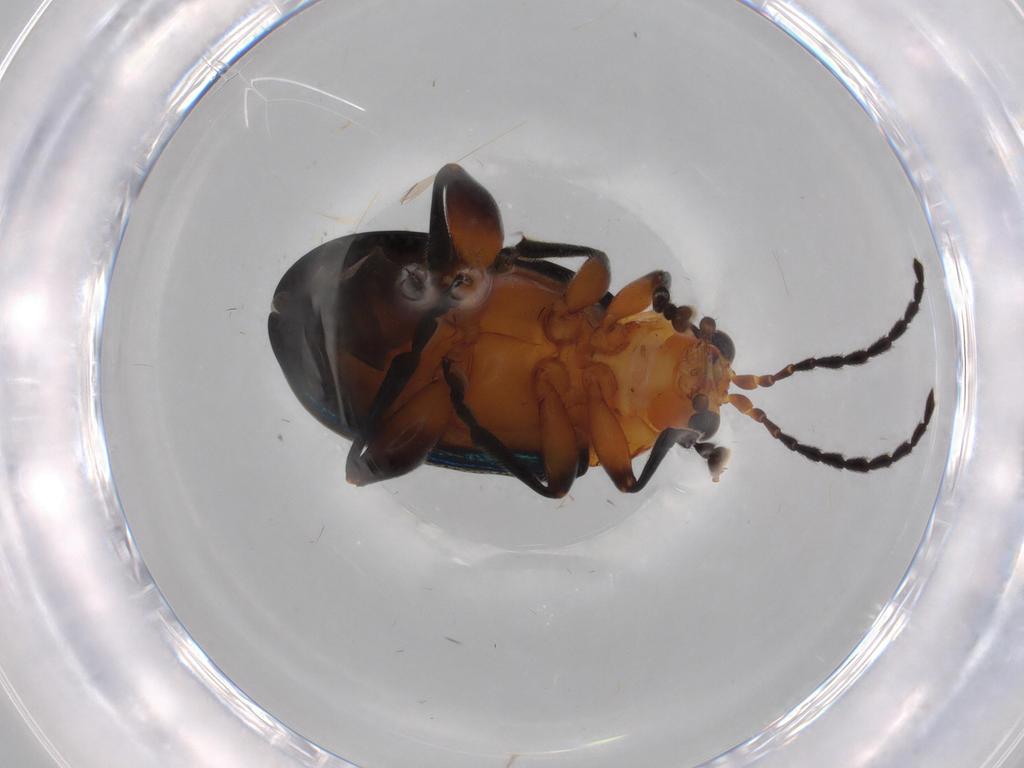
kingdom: Animalia
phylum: Arthropoda
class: Insecta
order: Coleoptera
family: Chrysomelidae
